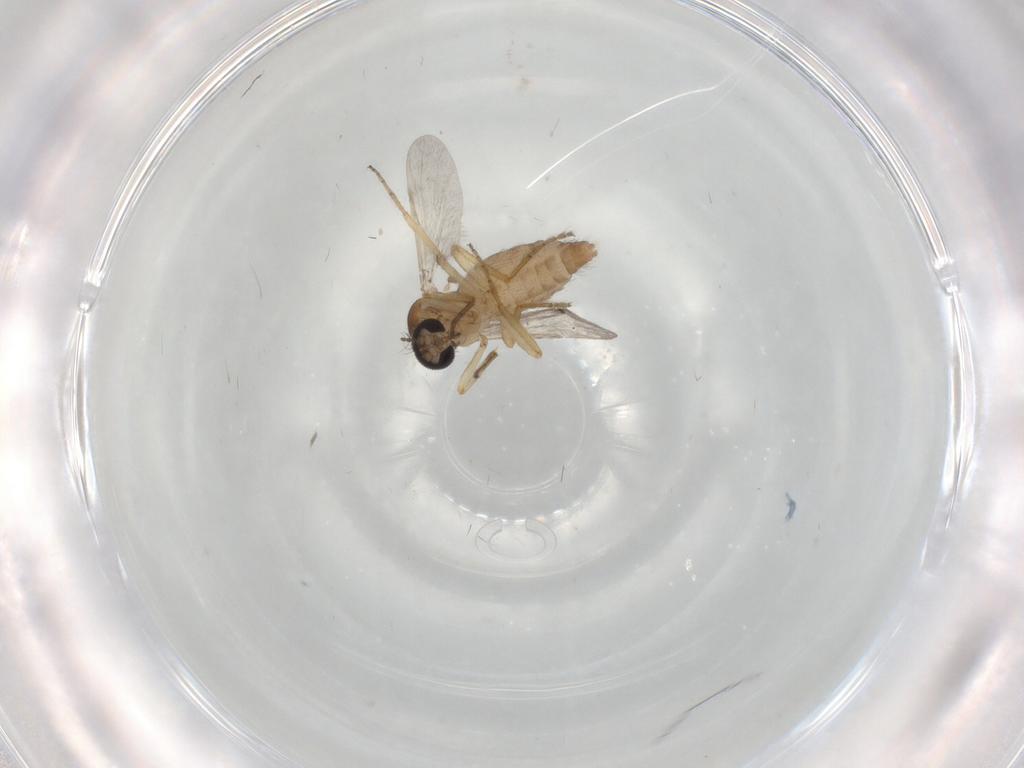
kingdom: Animalia
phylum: Arthropoda
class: Insecta
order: Diptera
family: Ceratopogonidae
